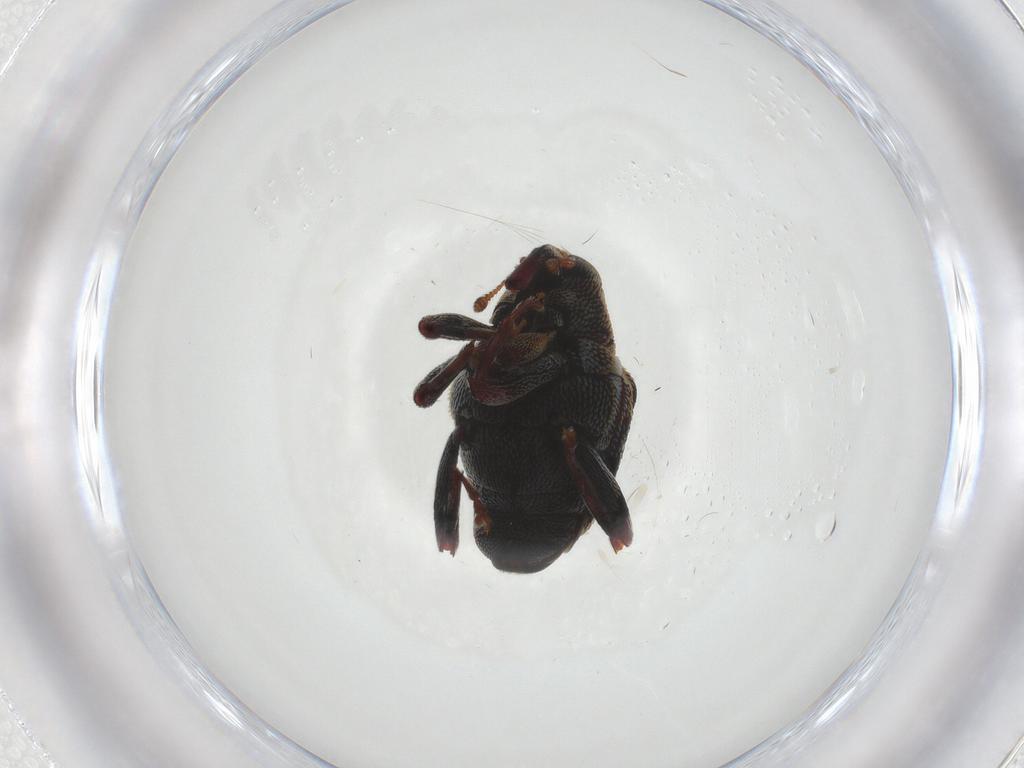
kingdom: Animalia
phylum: Arthropoda
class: Insecta
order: Coleoptera
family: Curculionidae
